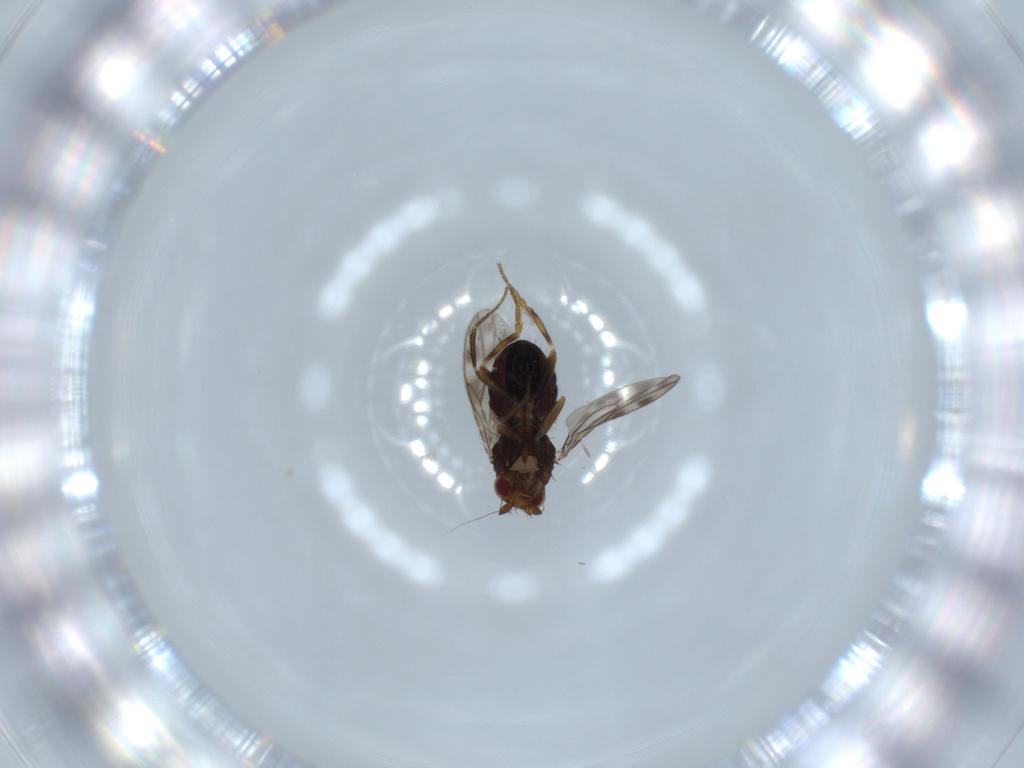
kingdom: Animalia
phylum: Arthropoda
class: Insecta
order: Diptera
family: Sphaeroceridae
